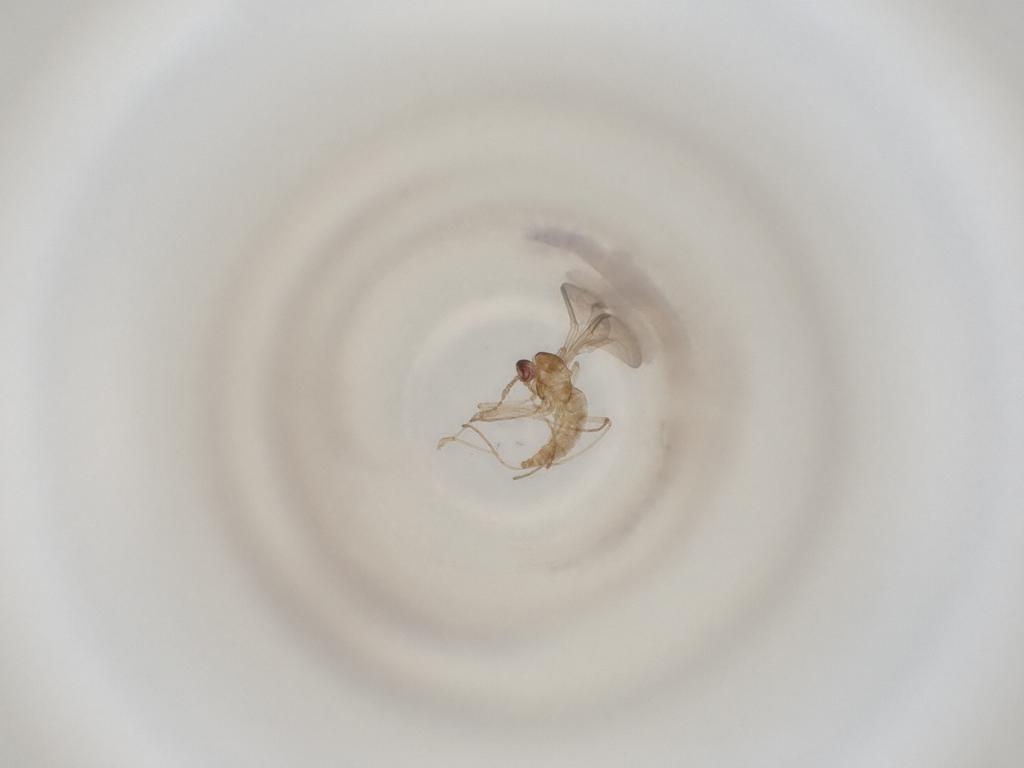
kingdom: Animalia
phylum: Arthropoda
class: Insecta
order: Diptera
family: Cecidomyiidae
